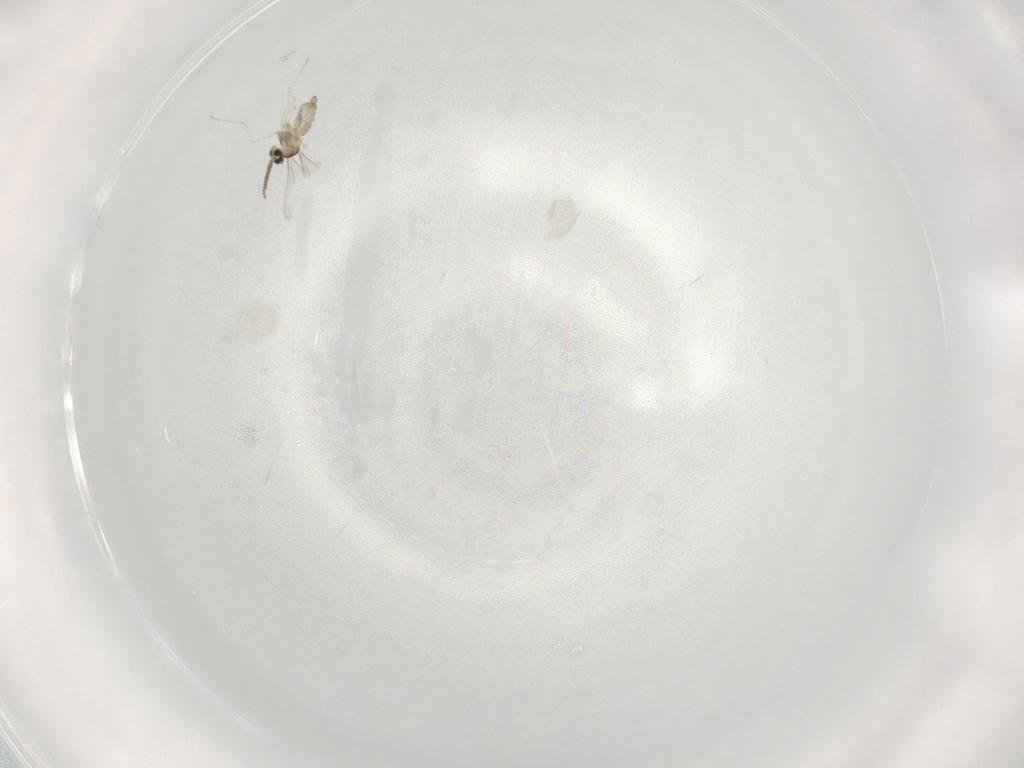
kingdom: Animalia
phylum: Arthropoda
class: Insecta
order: Diptera
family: Cecidomyiidae
